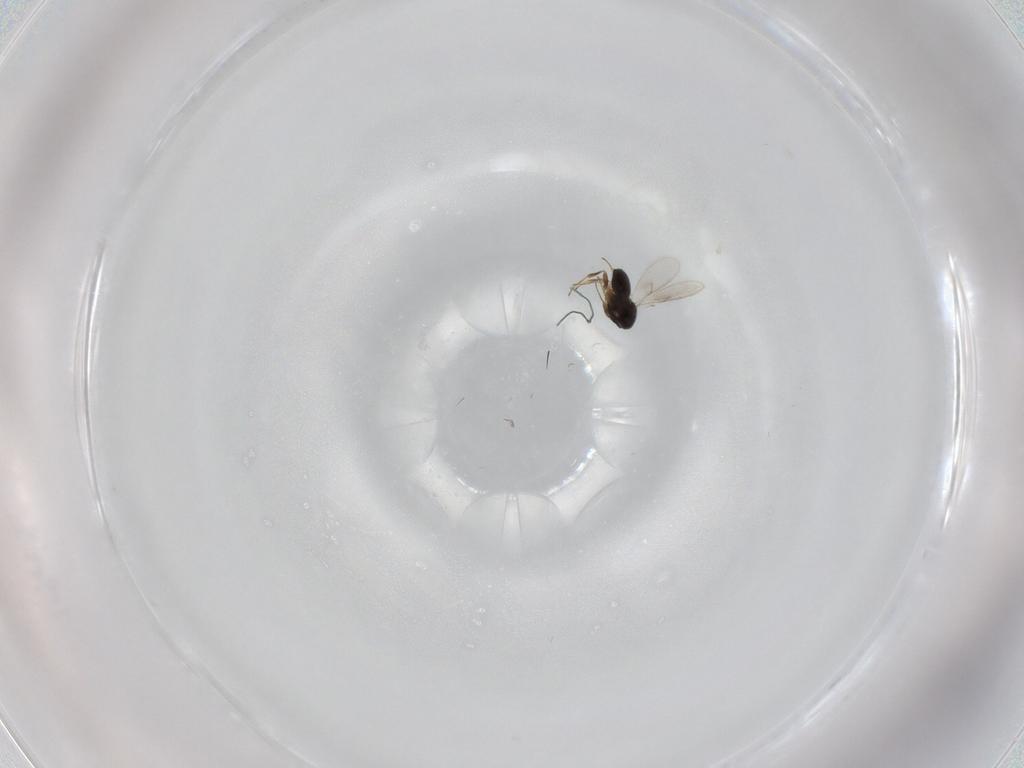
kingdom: Animalia
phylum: Arthropoda
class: Insecta
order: Hymenoptera
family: Scelionidae
